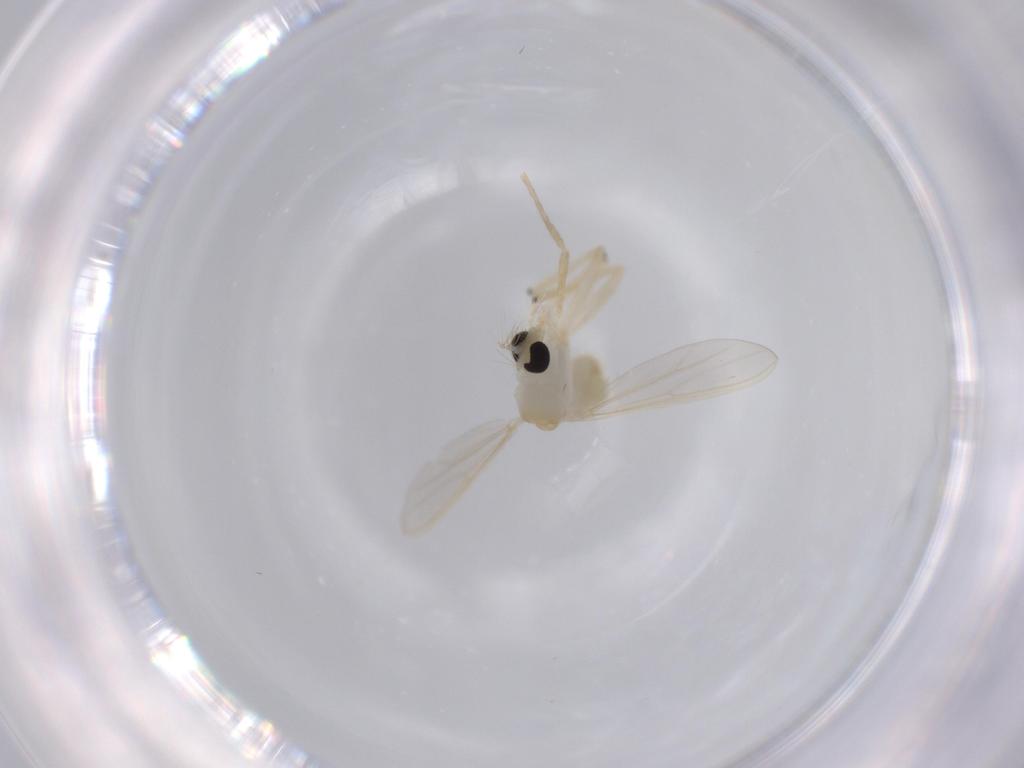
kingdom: Animalia
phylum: Arthropoda
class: Insecta
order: Diptera
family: Chironomidae
